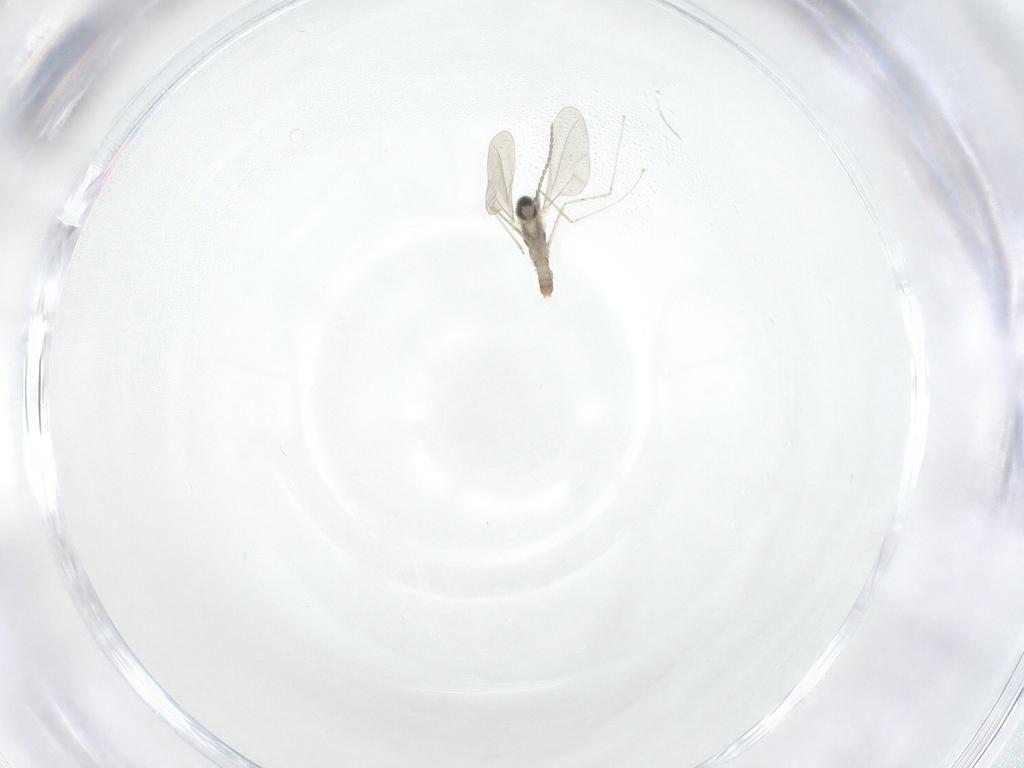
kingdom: Animalia
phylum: Arthropoda
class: Insecta
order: Diptera
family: Cecidomyiidae
